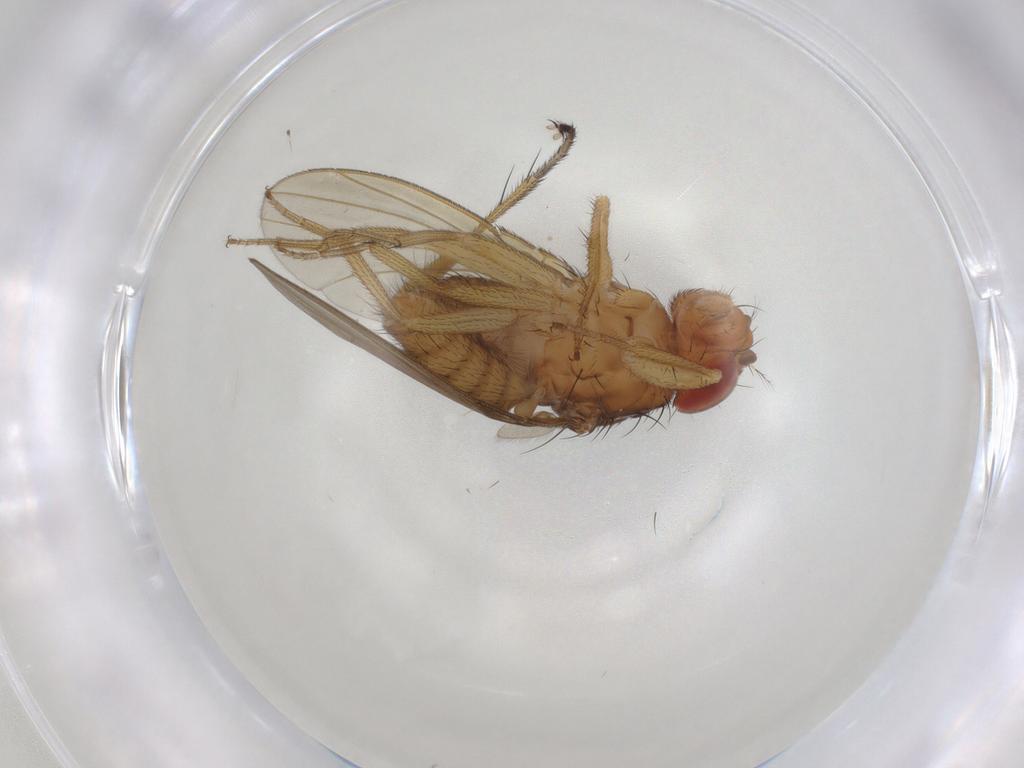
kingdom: Animalia
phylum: Arthropoda
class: Insecta
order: Diptera
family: Drosophilidae
